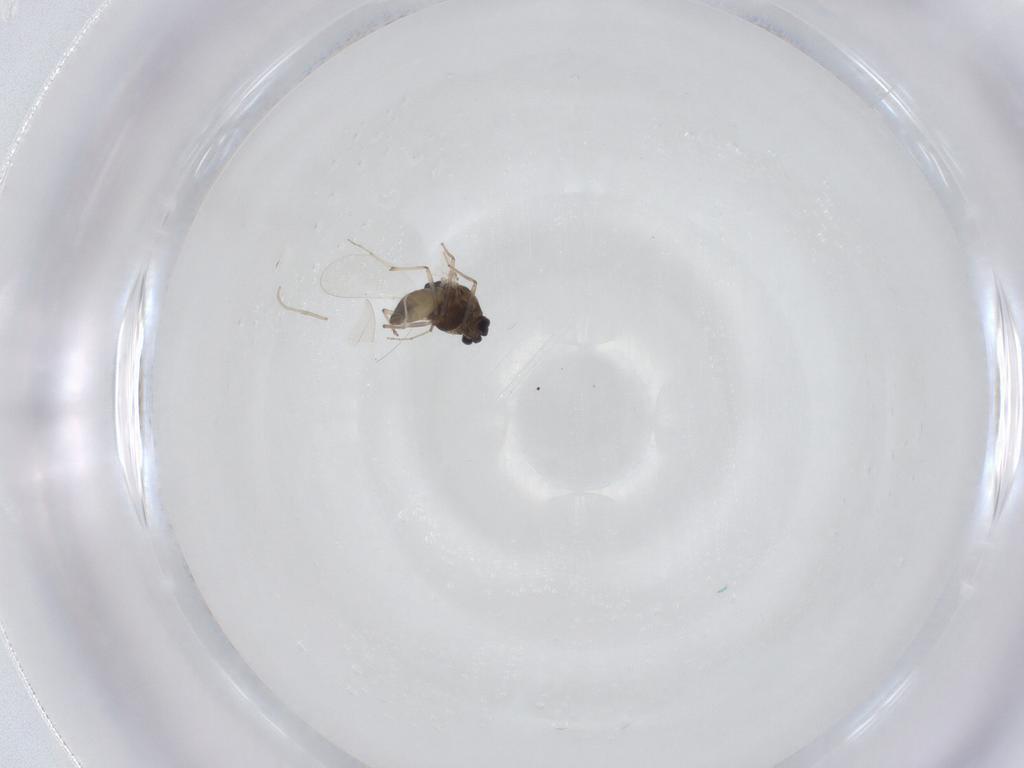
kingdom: Animalia
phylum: Arthropoda
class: Insecta
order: Diptera
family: Chironomidae
